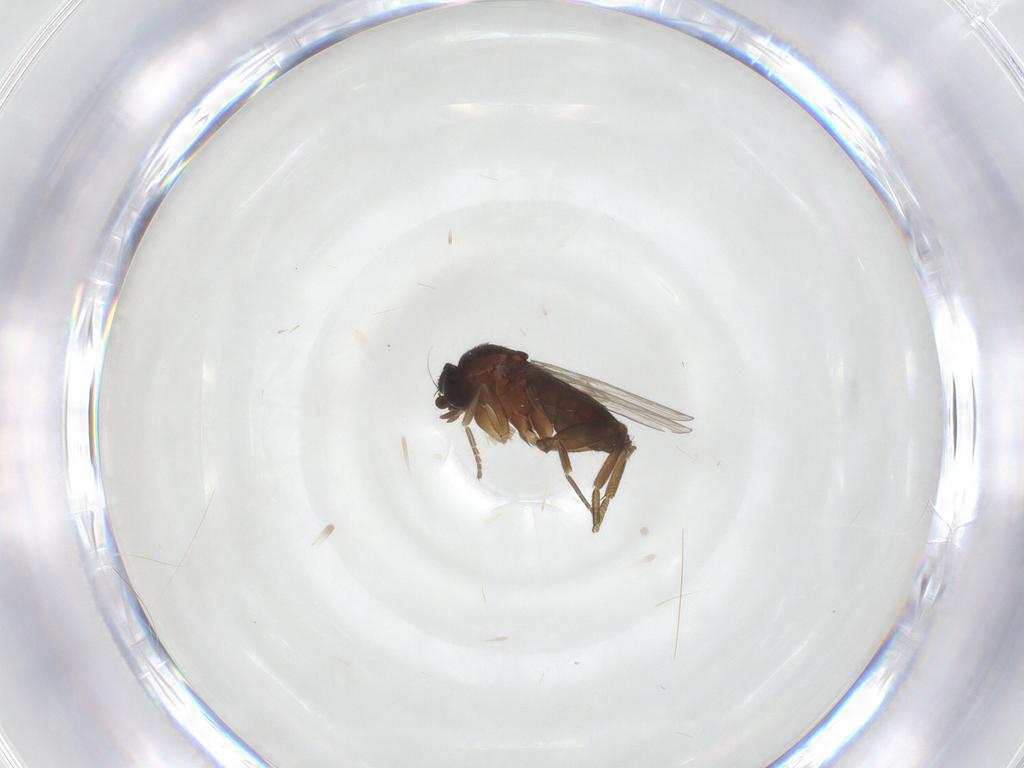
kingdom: Animalia
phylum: Arthropoda
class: Insecta
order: Diptera
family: Phoridae
